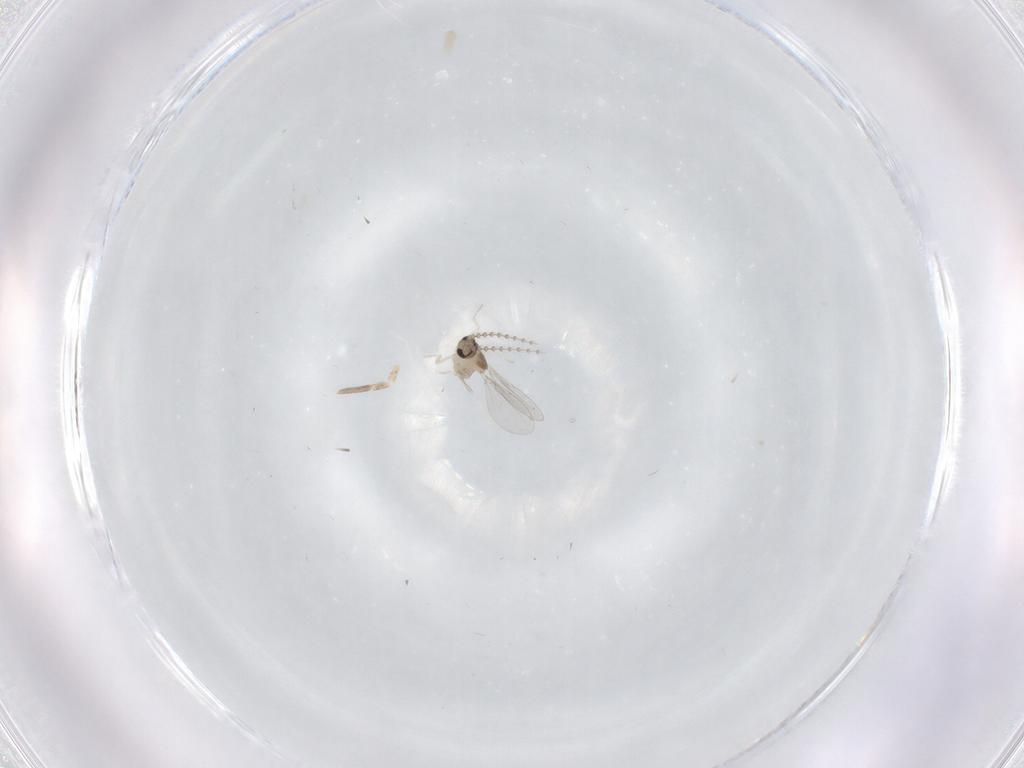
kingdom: Animalia
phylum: Arthropoda
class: Insecta
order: Diptera
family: Cecidomyiidae
